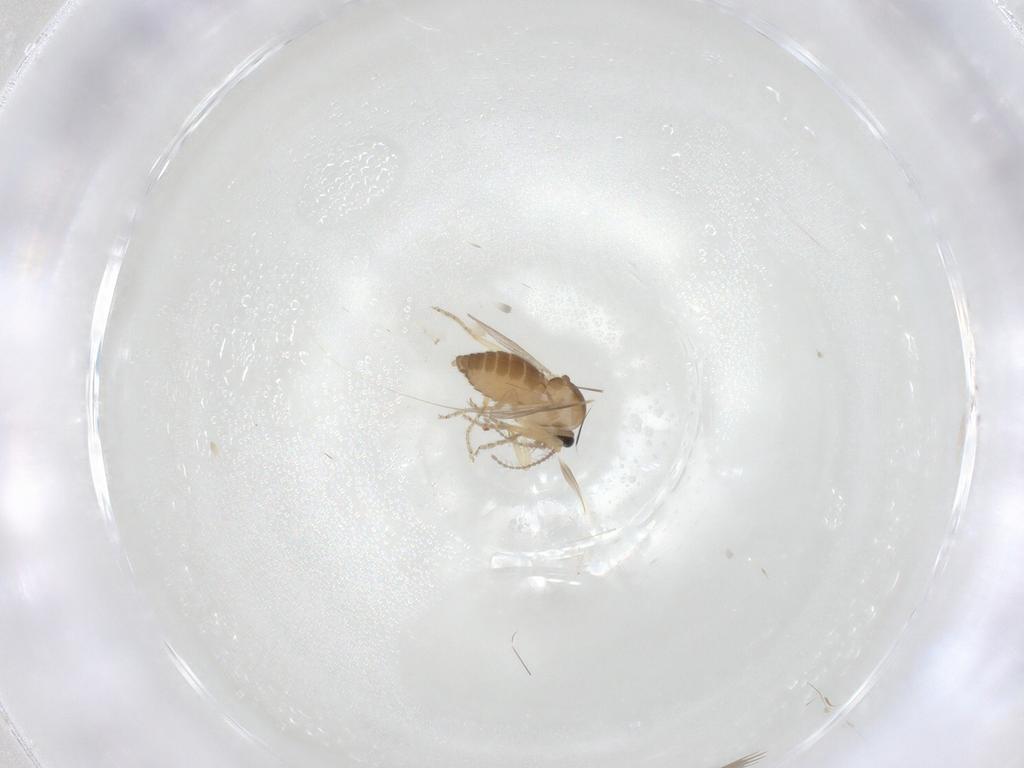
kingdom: Animalia
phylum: Arthropoda
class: Insecta
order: Diptera
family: Ceratopogonidae
